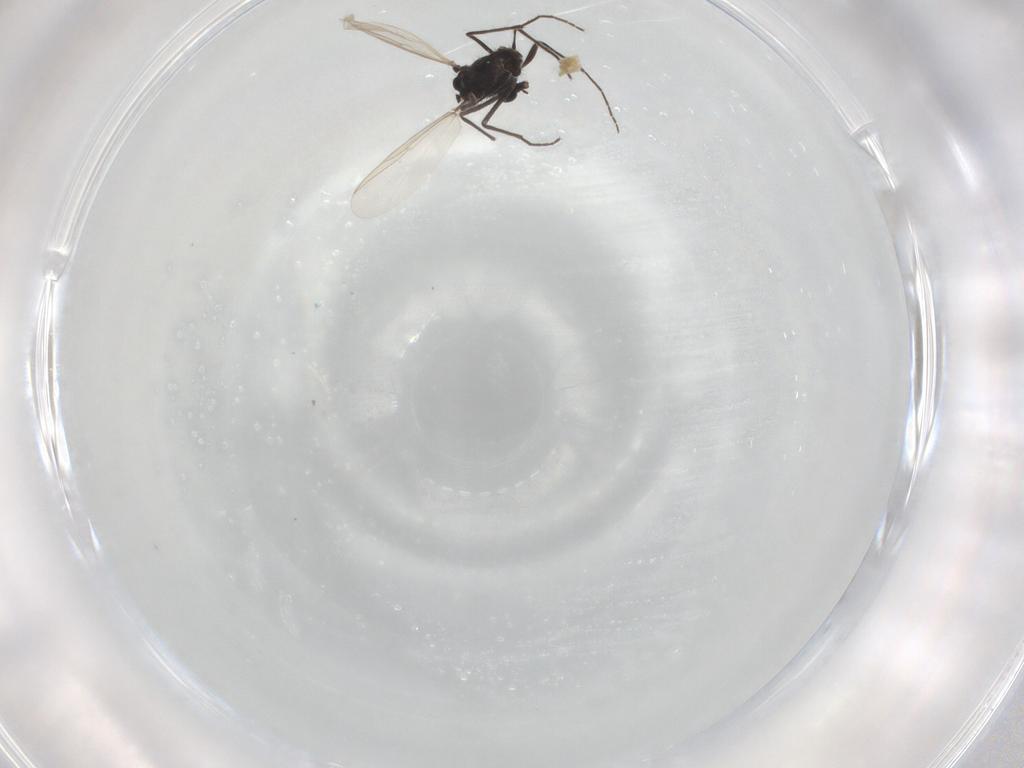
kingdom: Animalia
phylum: Arthropoda
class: Insecta
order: Diptera
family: Chironomidae
